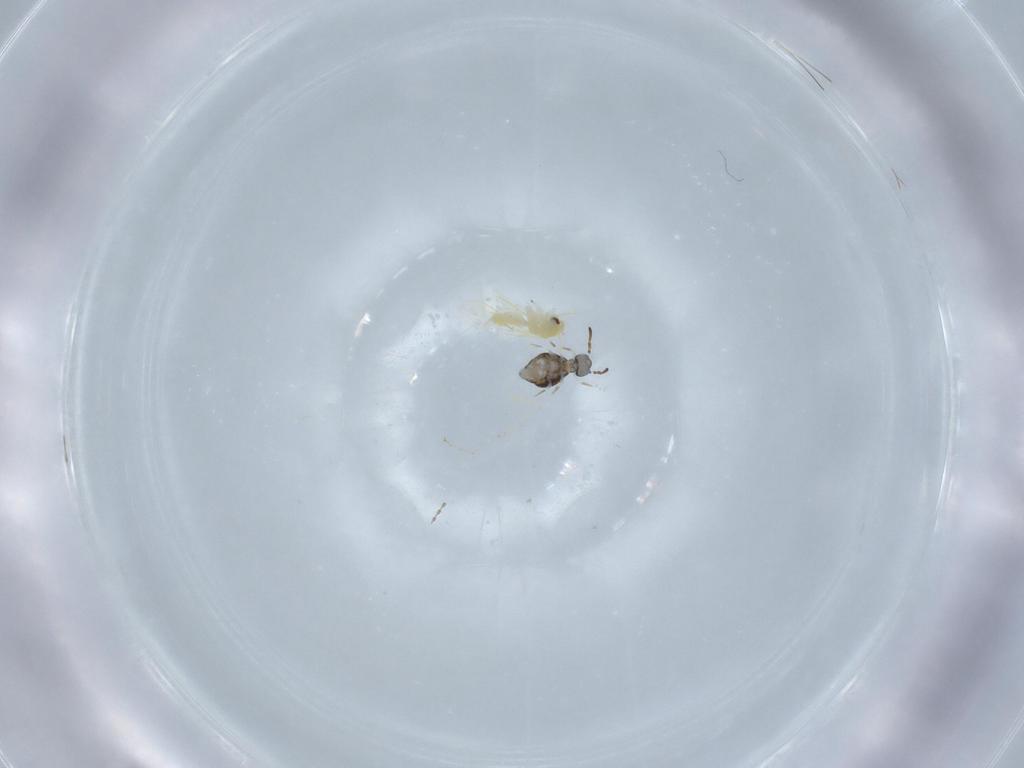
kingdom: Animalia
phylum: Arthropoda
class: Insecta
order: Hemiptera
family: Aleyrodidae
